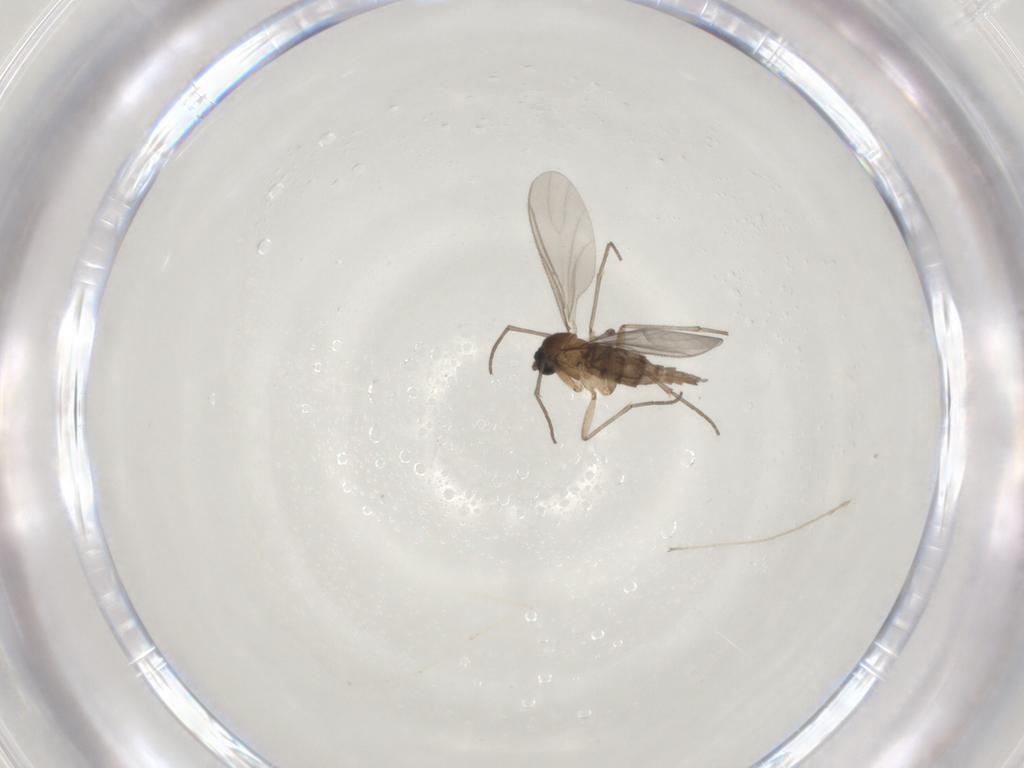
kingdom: Animalia
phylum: Arthropoda
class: Insecta
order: Diptera
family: Sciaridae
